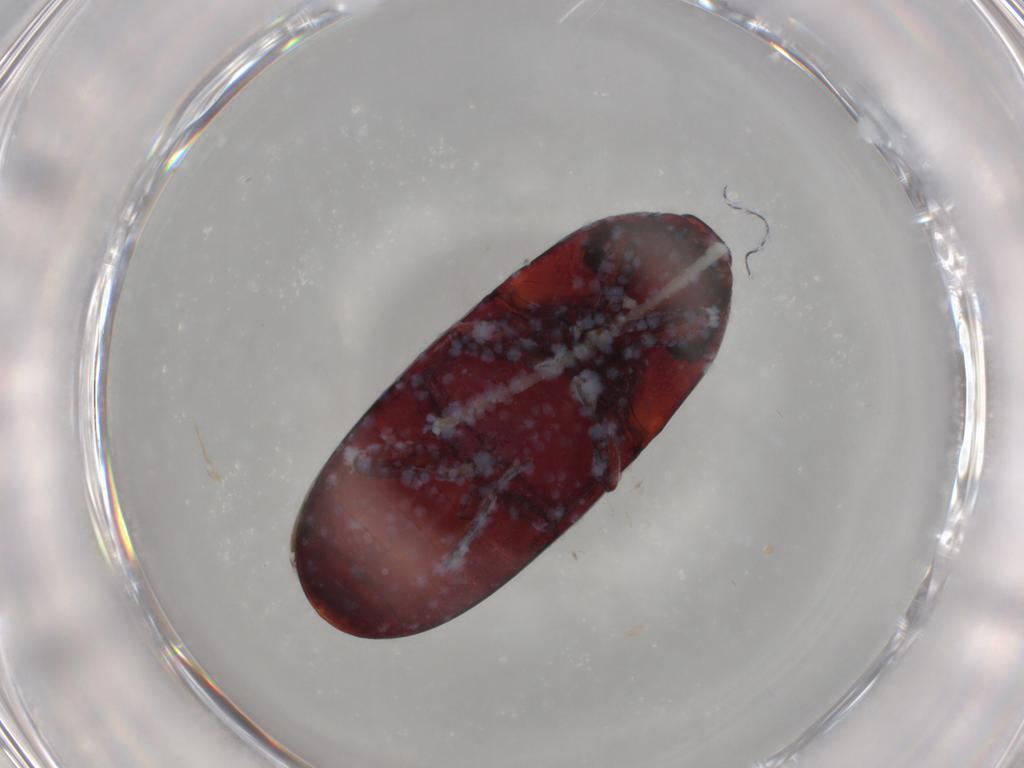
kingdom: Animalia
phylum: Arthropoda
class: Insecta
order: Coleoptera
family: Elateridae
